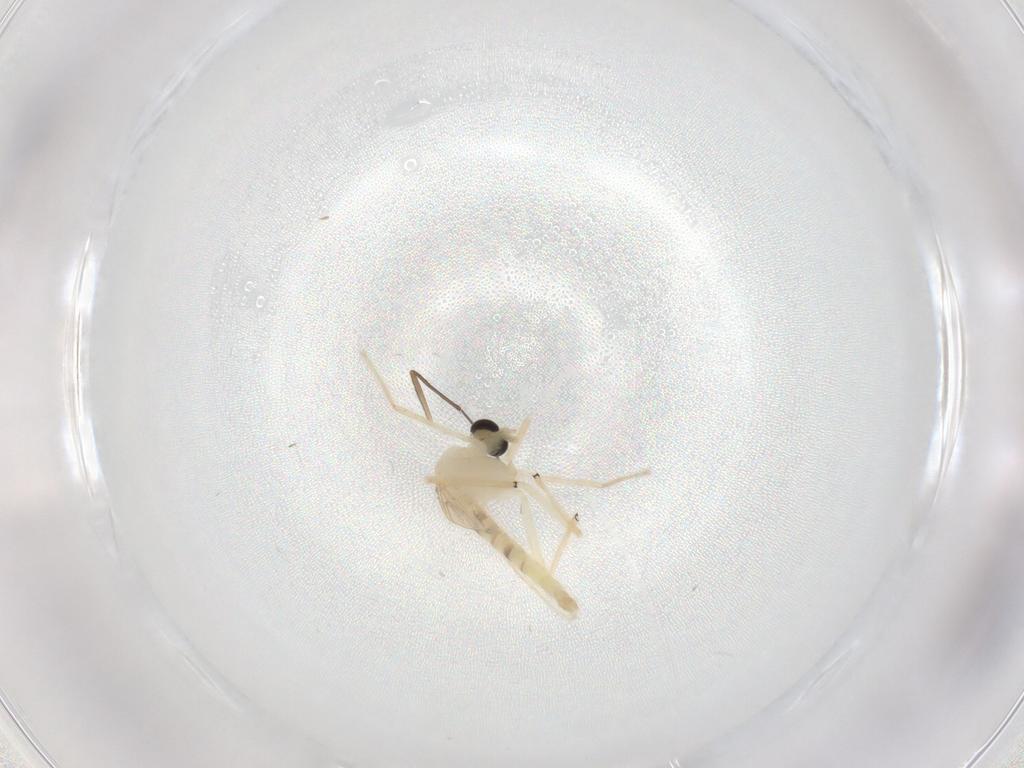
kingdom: Animalia
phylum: Arthropoda
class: Insecta
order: Diptera
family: Chironomidae
